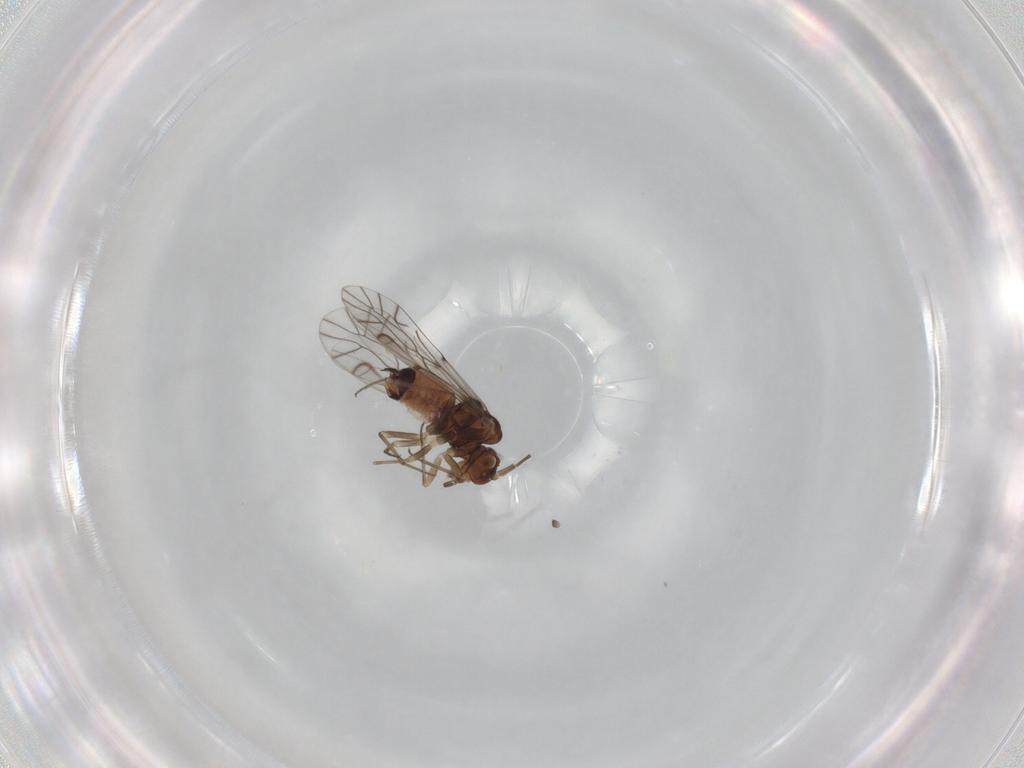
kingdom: Animalia
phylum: Arthropoda
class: Insecta
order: Psocodea
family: Lachesillidae
